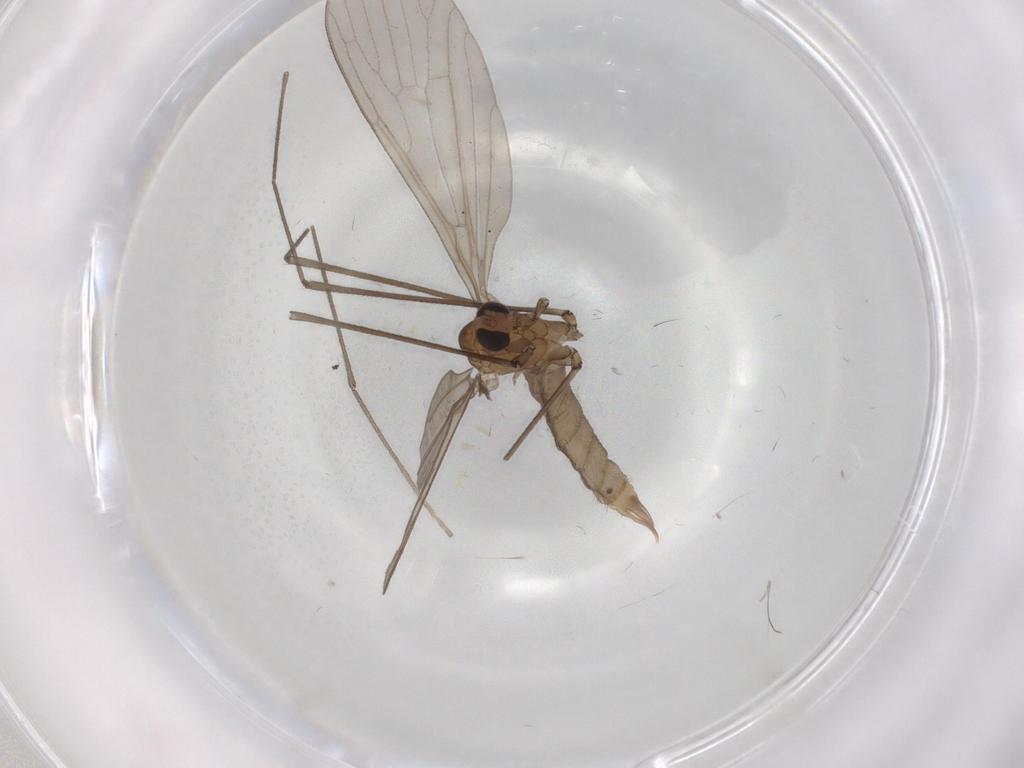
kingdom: Animalia
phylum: Arthropoda
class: Insecta
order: Diptera
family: Limoniidae
